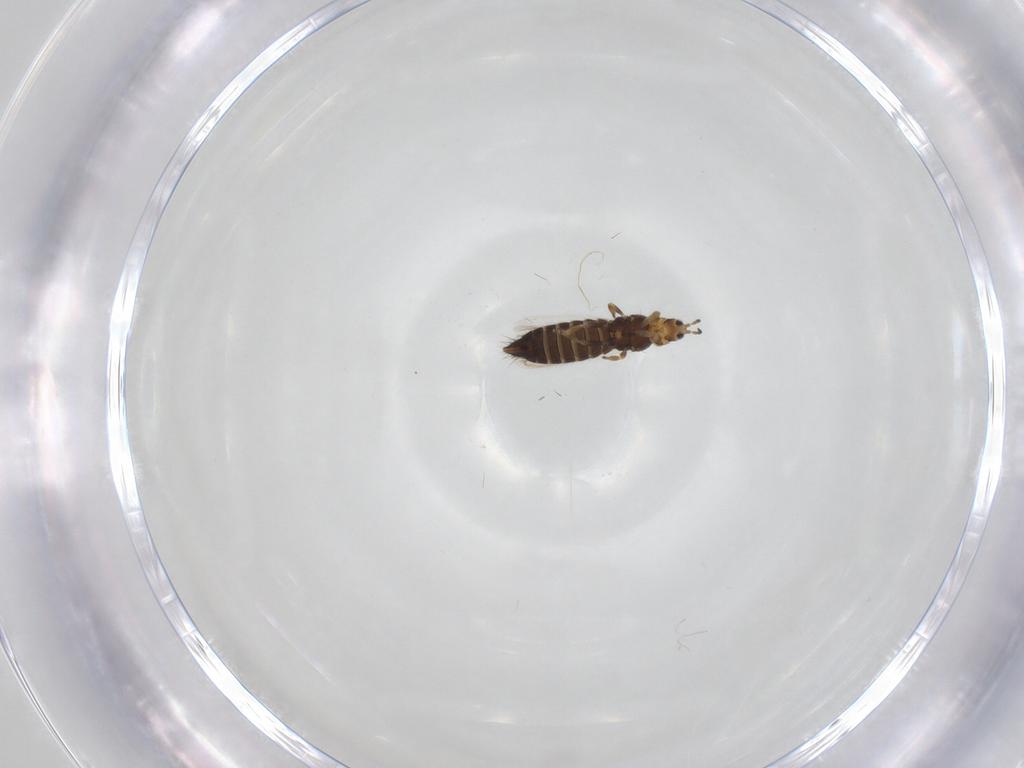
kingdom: Animalia
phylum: Arthropoda
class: Insecta
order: Thysanoptera
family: Melanthripidae
